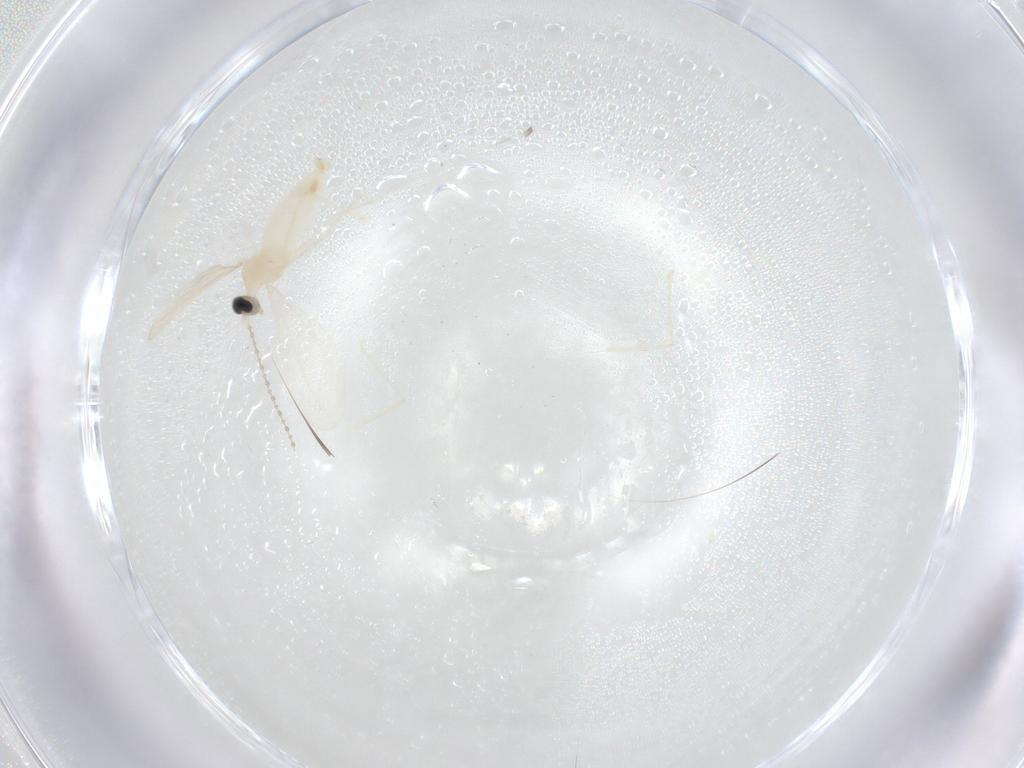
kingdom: Animalia
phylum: Arthropoda
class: Insecta
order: Diptera
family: Cecidomyiidae
